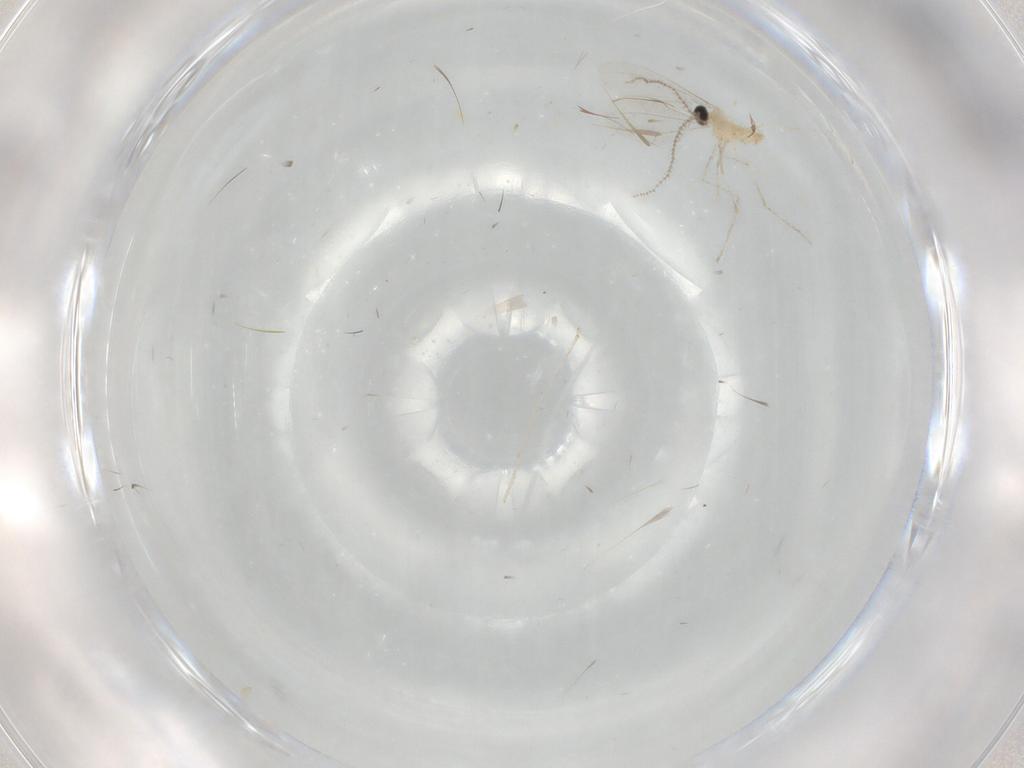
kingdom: Animalia
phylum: Arthropoda
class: Insecta
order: Diptera
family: Cecidomyiidae
